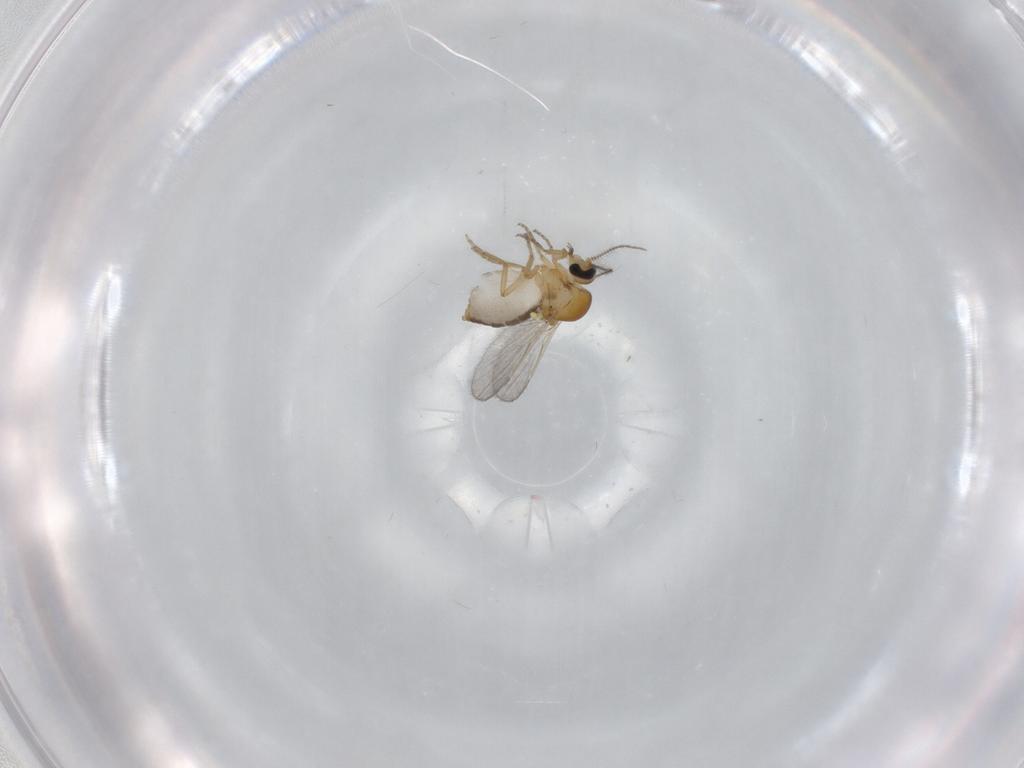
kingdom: Animalia
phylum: Arthropoda
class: Insecta
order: Diptera
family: Ceratopogonidae
